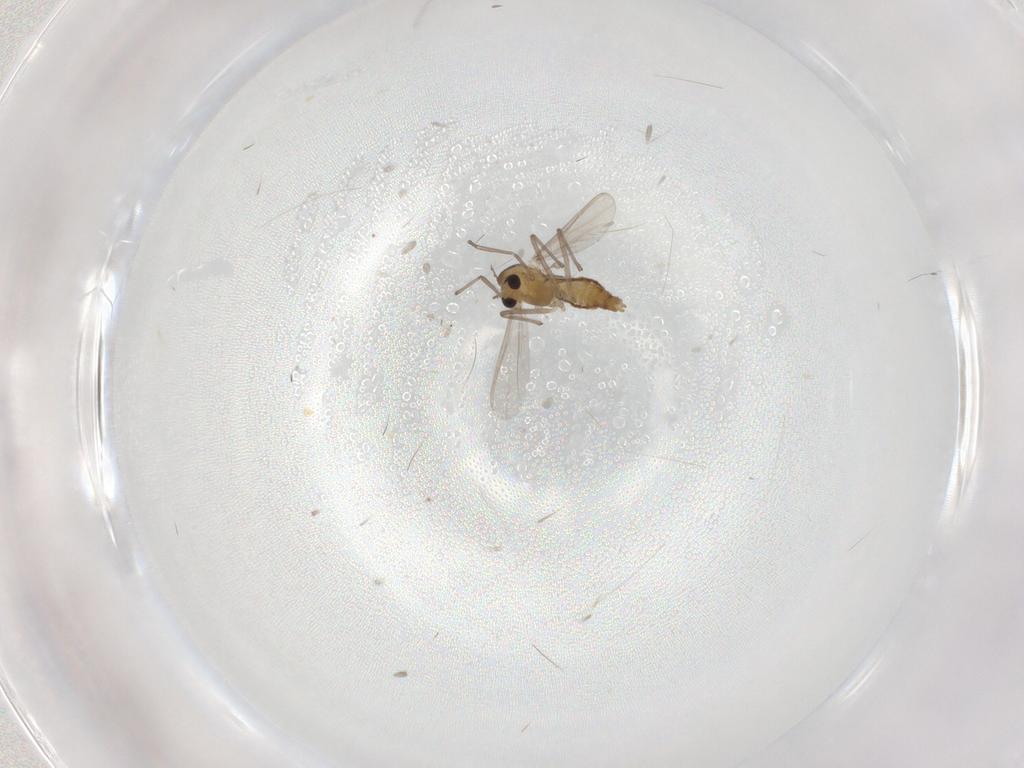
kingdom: Animalia
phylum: Arthropoda
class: Insecta
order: Diptera
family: Chironomidae
